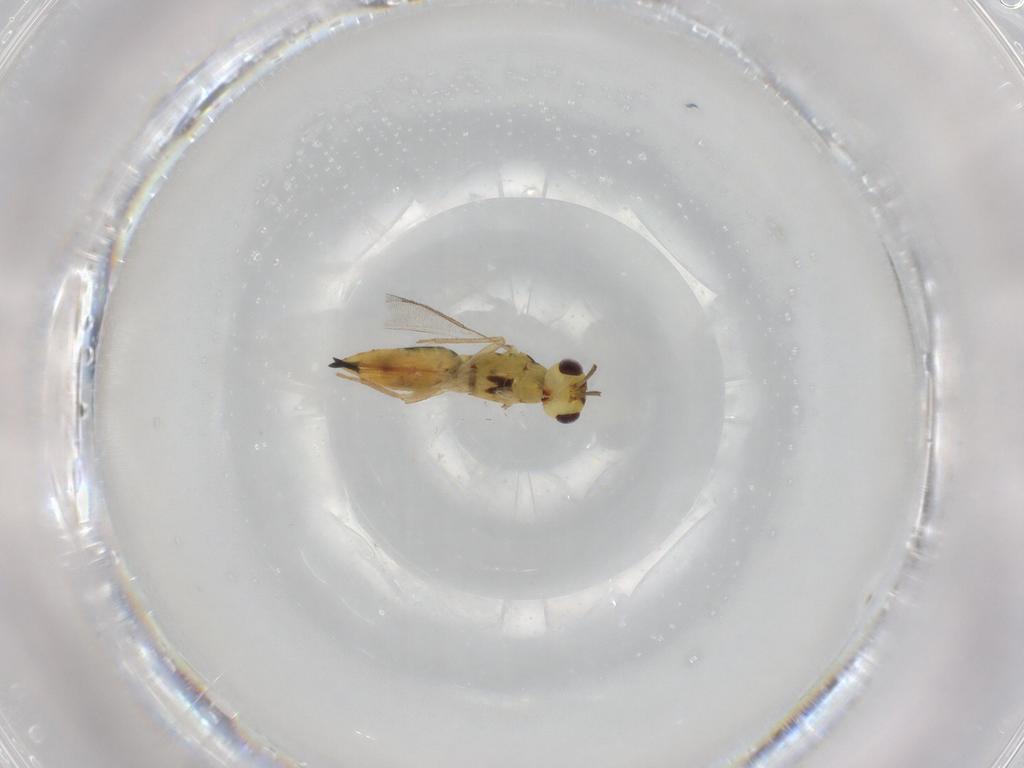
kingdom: Animalia
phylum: Arthropoda
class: Insecta
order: Hymenoptera
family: Eulophidae
